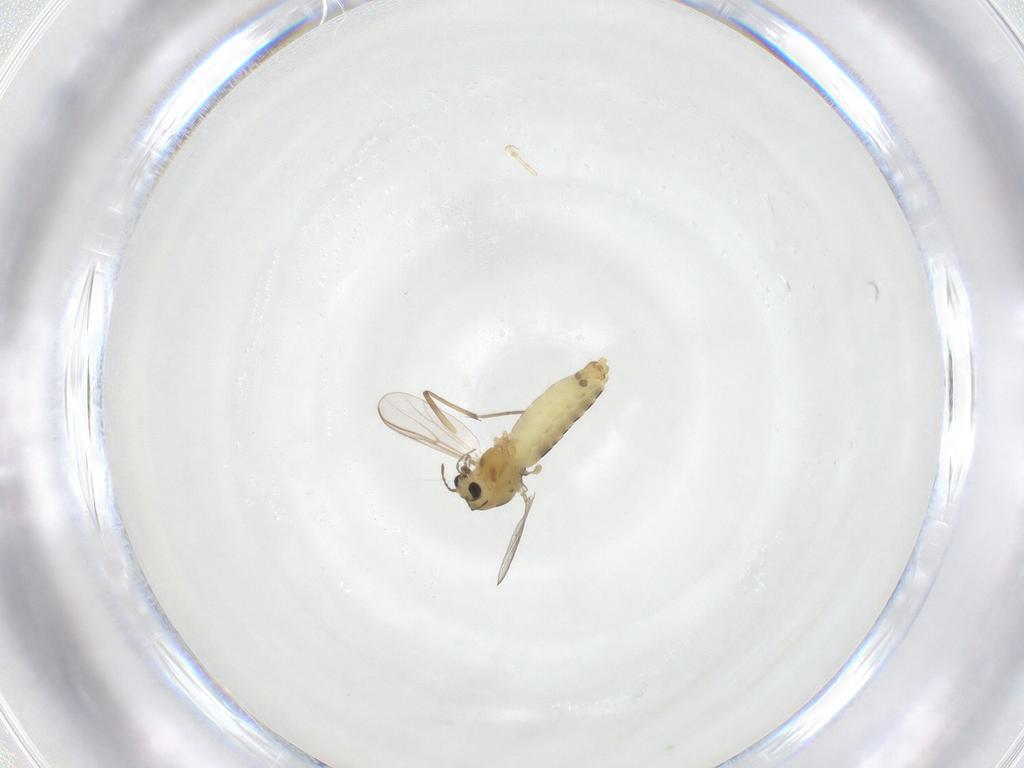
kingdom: Animalia
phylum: Arthropoda
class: Insecta
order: Diptera
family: Chironomidae
